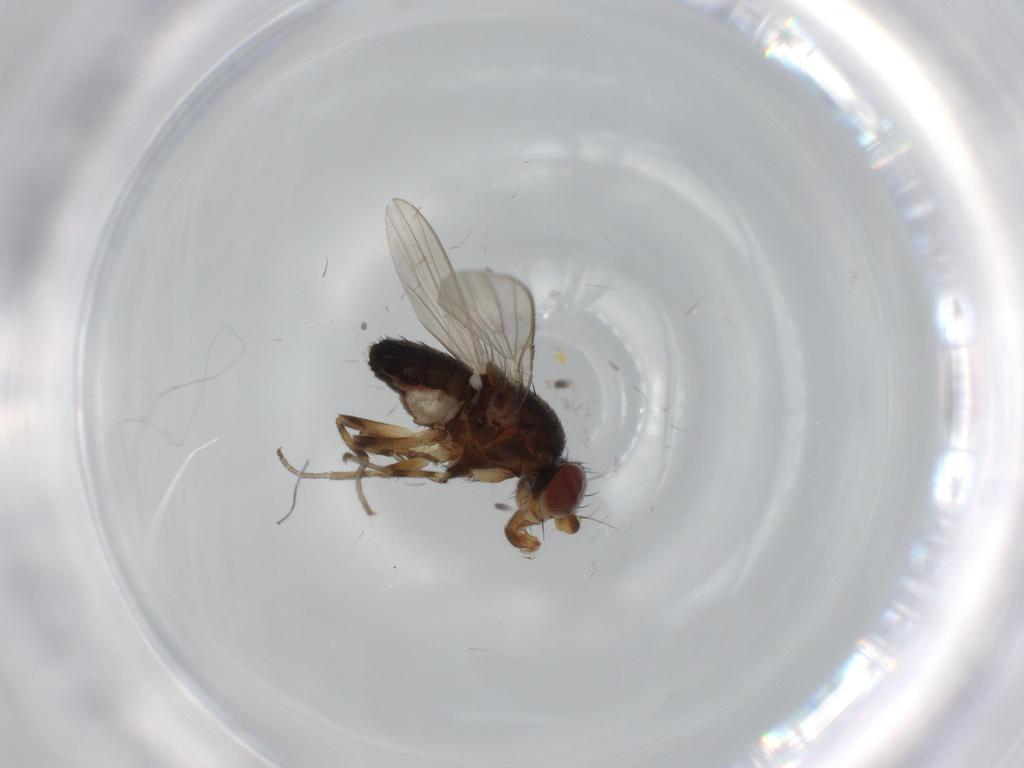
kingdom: Animalia
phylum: Arthropoda
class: Insecta
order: Diptera
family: Heleomyzidae
